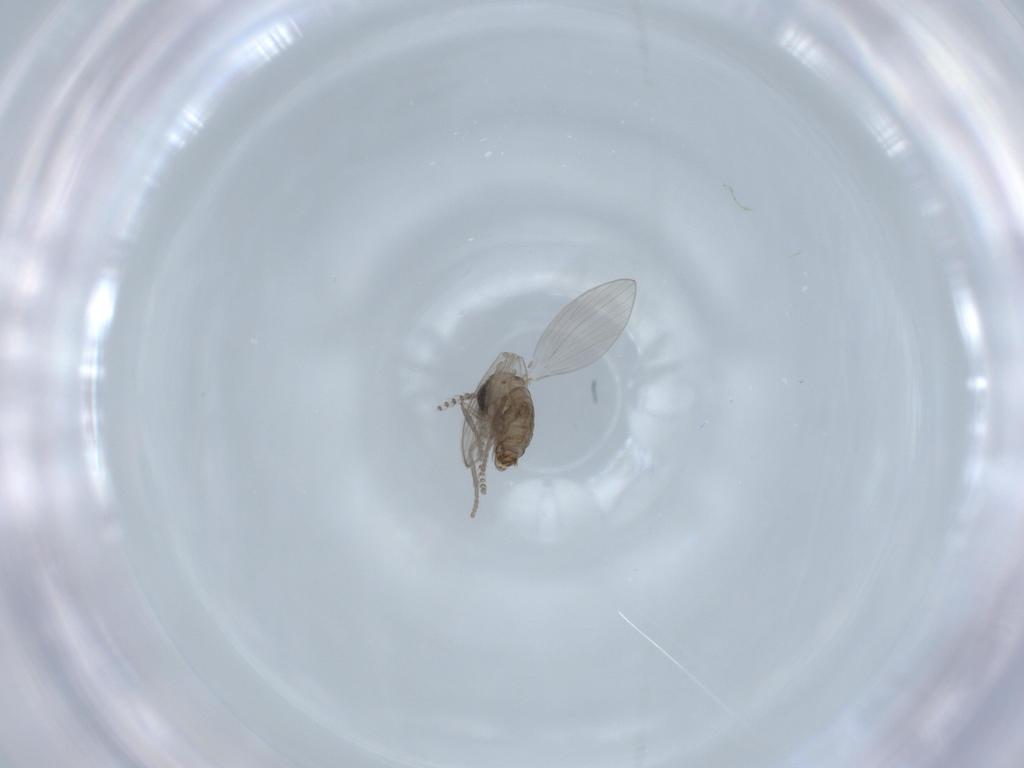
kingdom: Animalia
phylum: Arthropoda
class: Insecta
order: Diptera
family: Psychodidae
